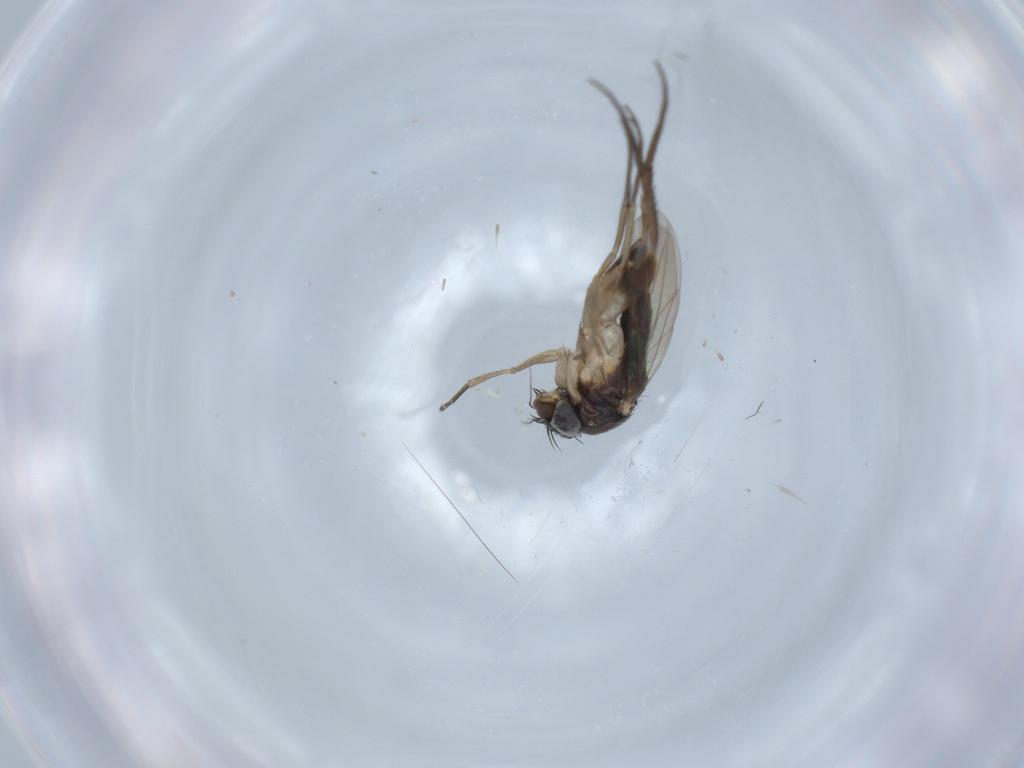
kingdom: Animalia
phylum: Arthropoda
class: Insecta
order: Diptera
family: Phoridae
